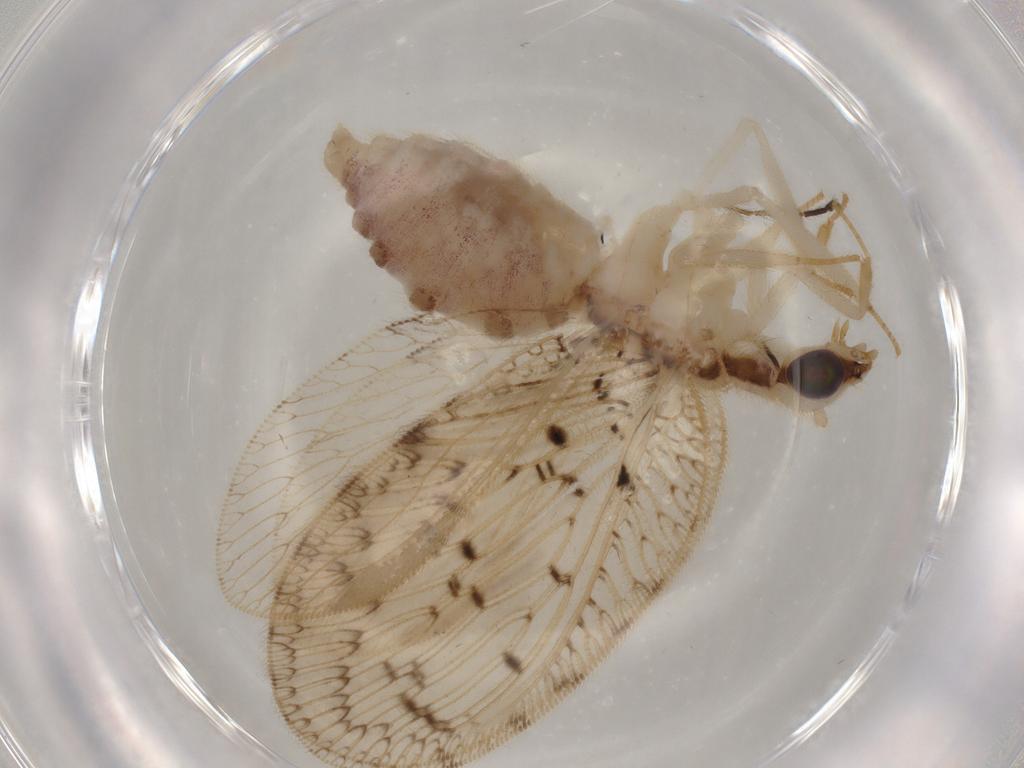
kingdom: Animalia
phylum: Arthropoda
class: Insecta
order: Neuroptera
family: Hemerobiidae
